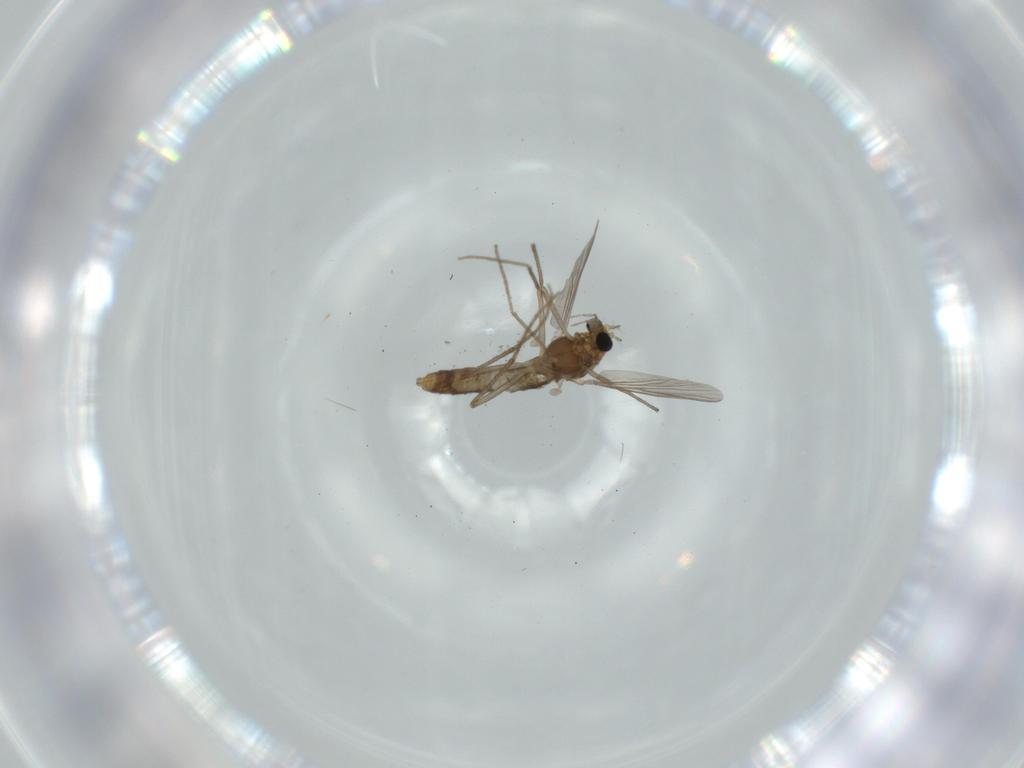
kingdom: Animalia
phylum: Arthropoda
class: Insecta
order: Diptera
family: Chironomidae
